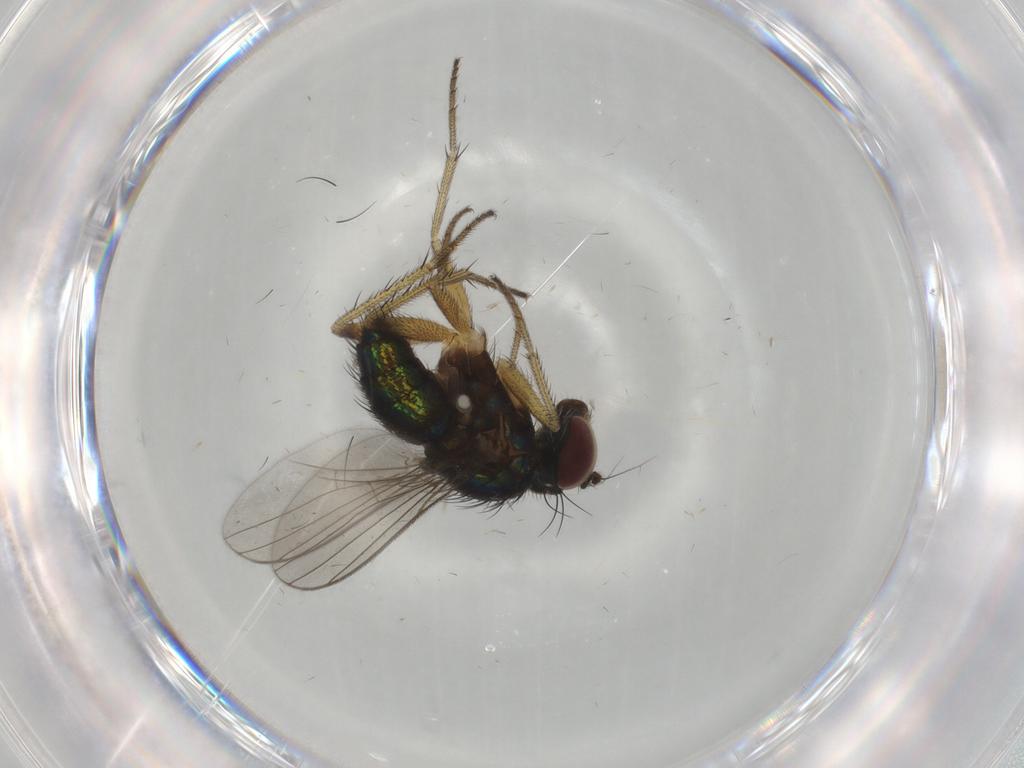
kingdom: Animalia
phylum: Arthropoda
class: Insecta
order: Diptera
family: Dolichopodidae
